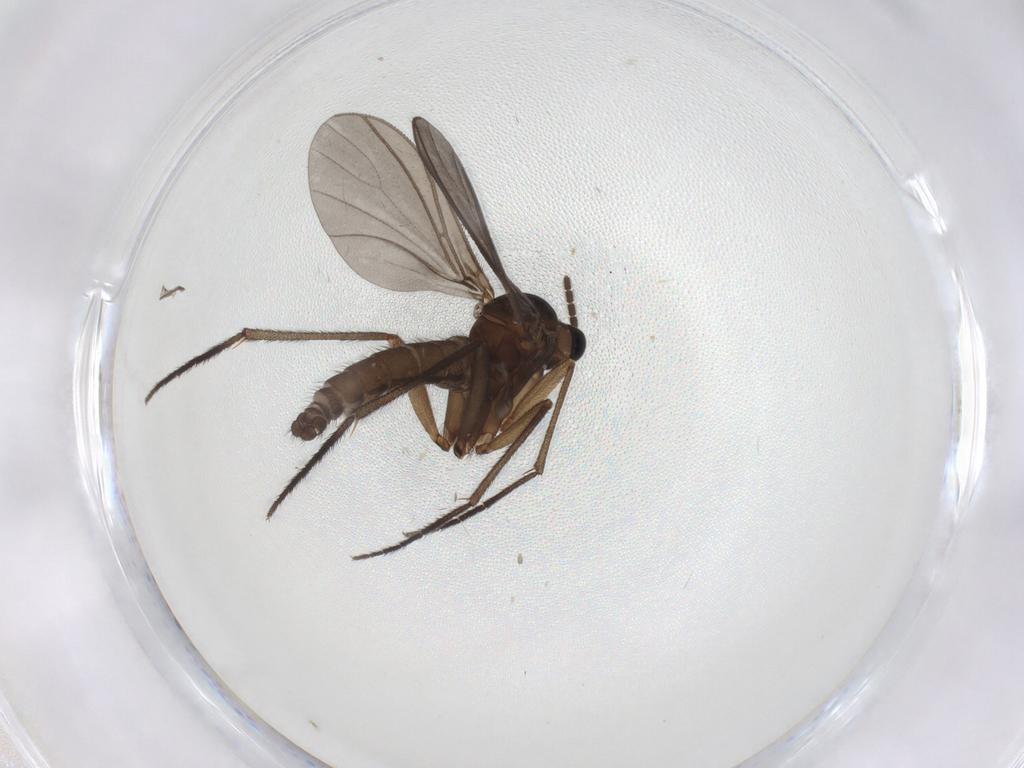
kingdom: Animalia
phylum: Arthropoda
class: Insecta
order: Diptera
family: Sciaridae
